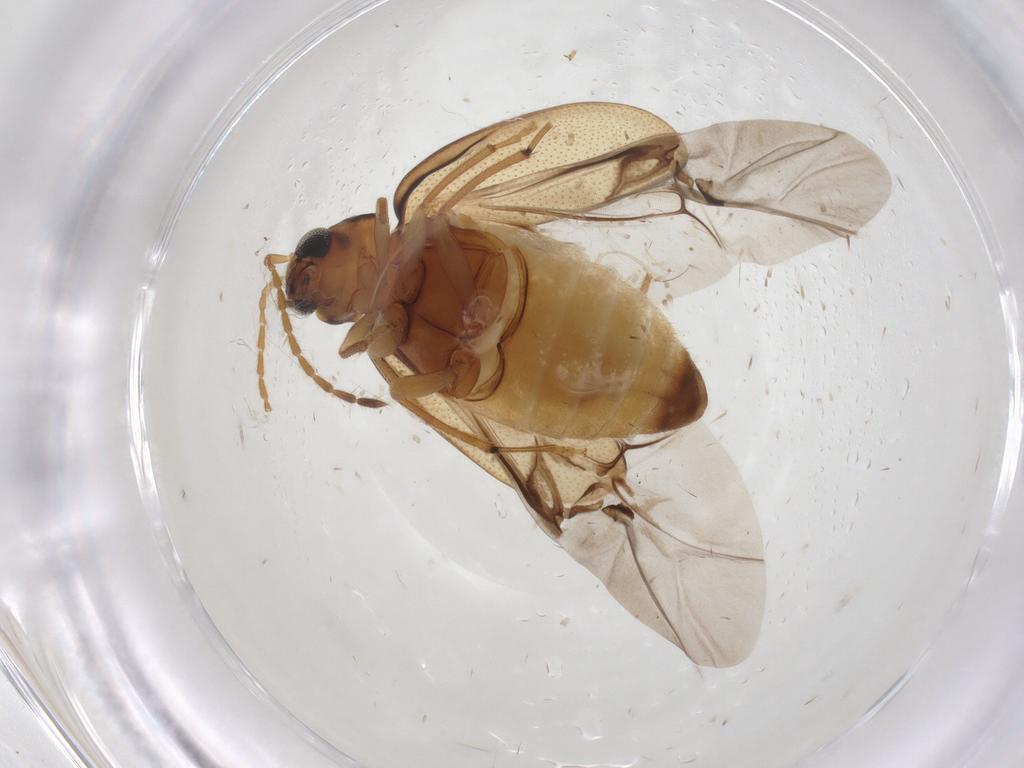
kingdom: Animalia
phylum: Arthropoda
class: Insecta
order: Coleoptera
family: Chrysomelidae
